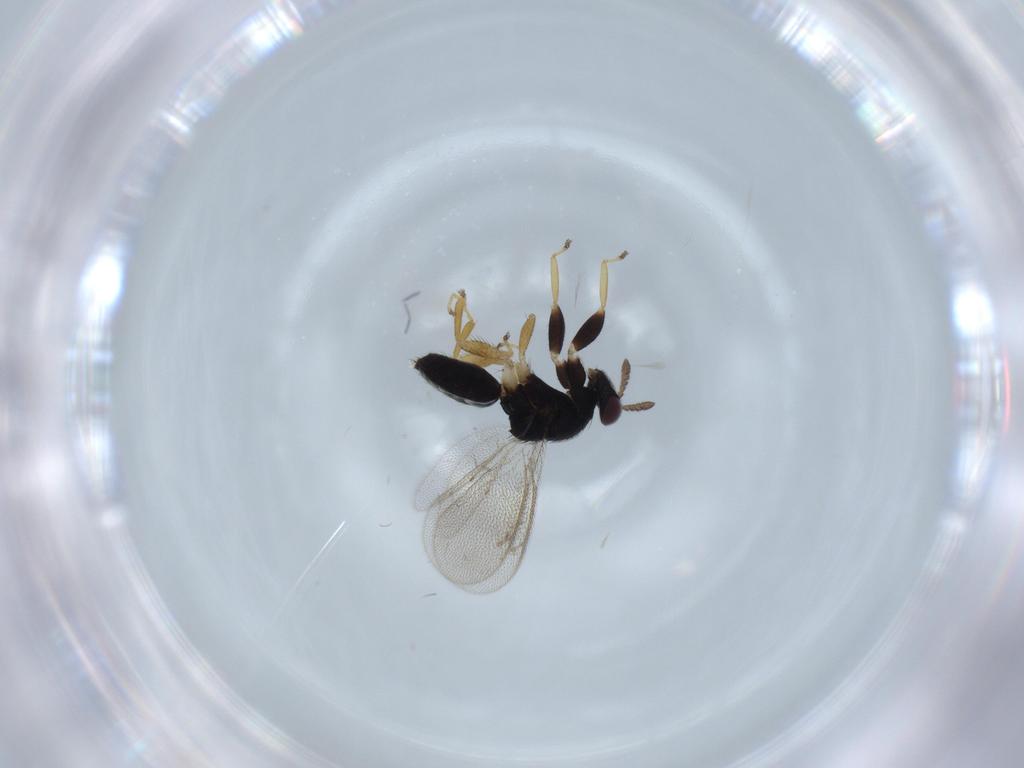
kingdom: Animalia
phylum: Arthropoda
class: Insecta
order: Hymenoptera
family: Eulophidae
